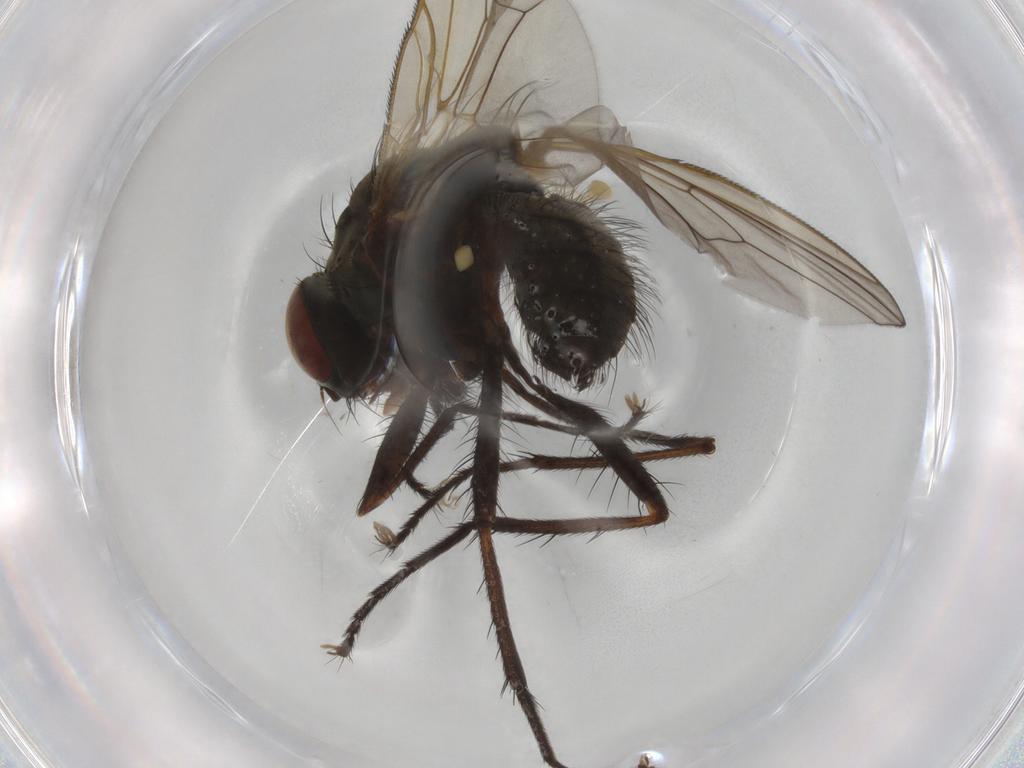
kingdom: Animalia
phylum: Arthropoda
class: Insecta
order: Diptera
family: Anthomyiidae
